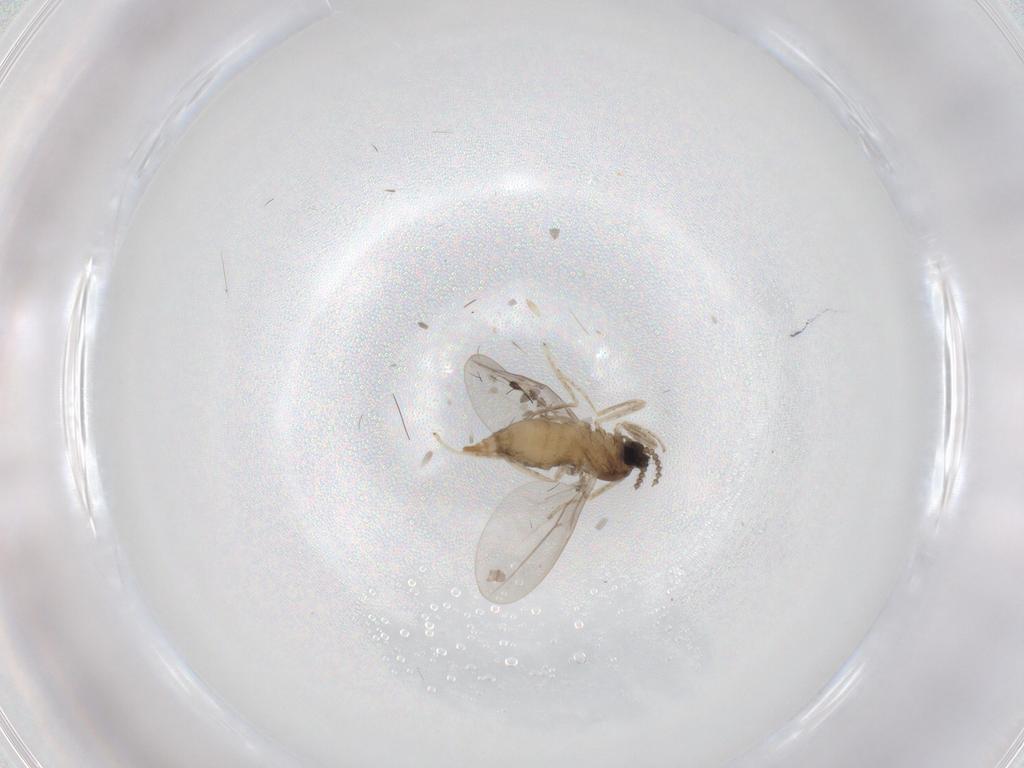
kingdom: Animalia
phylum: Arthropoda
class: Insecta
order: Diptera
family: Cecidomyiidae
